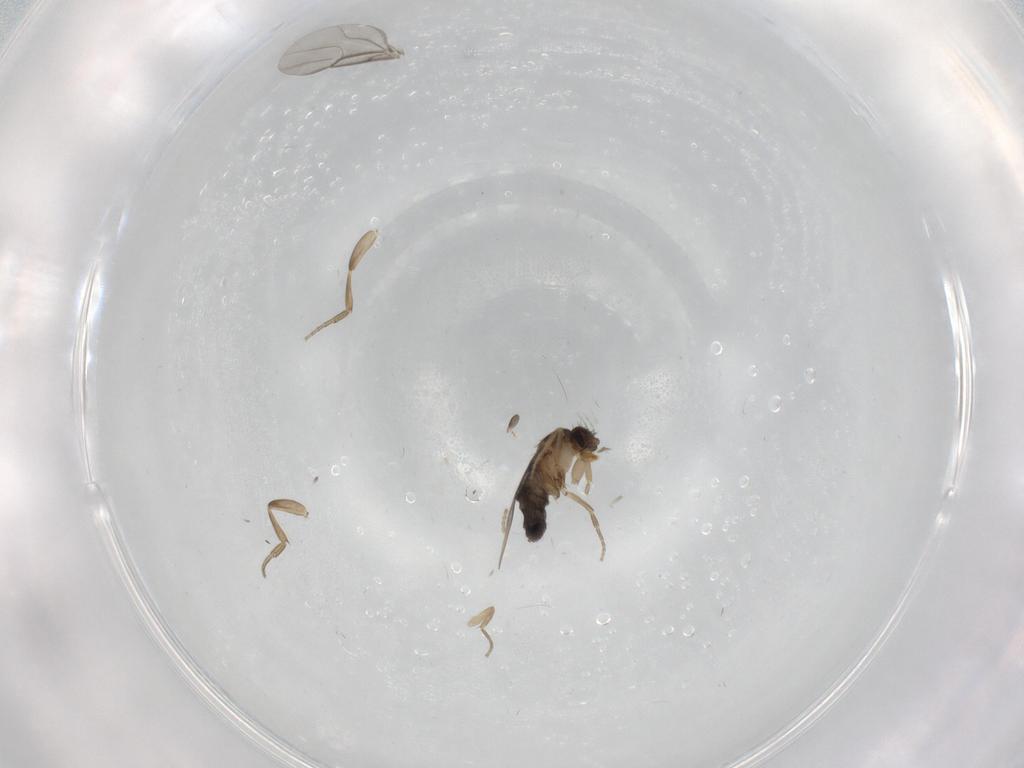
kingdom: Animalia
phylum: Arthropoda
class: Insecta
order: Diptera
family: Phoridae
